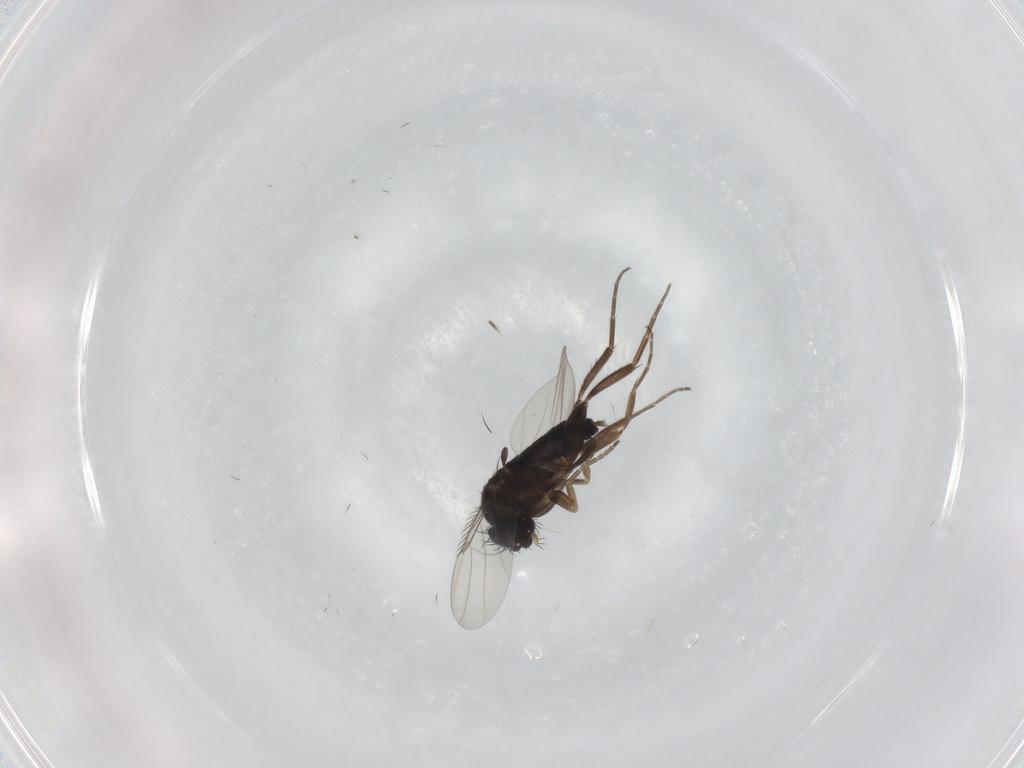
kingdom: Animalia
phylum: Arthropoda
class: Insecta
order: Diptera
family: Phoridae
